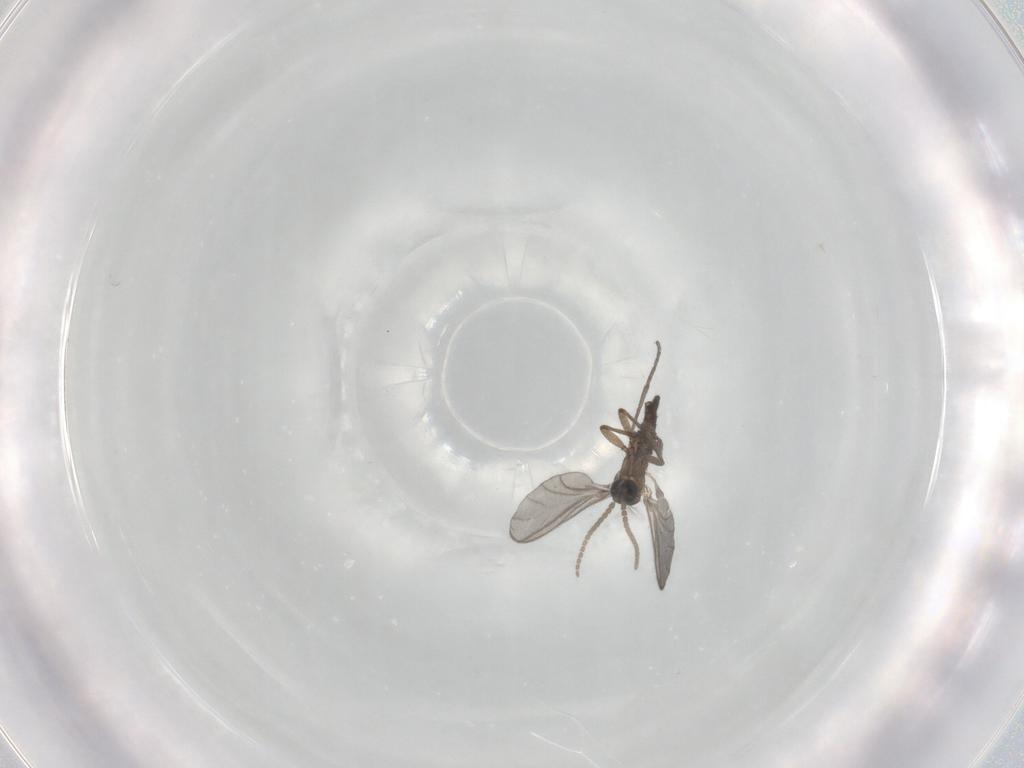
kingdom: Animalia
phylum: Arthropoda
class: Insecta
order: Diptera
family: Sciaridae
